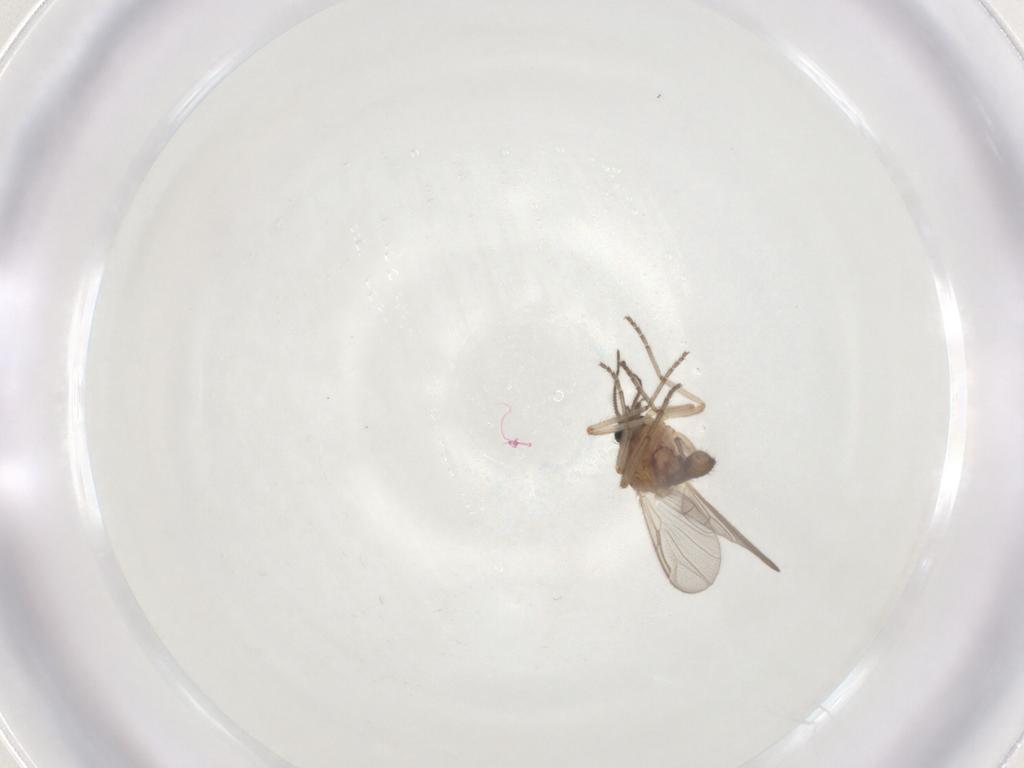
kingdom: Animalia
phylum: Arthropoda
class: Insecta
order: Diptera
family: Ceratopogonidae
